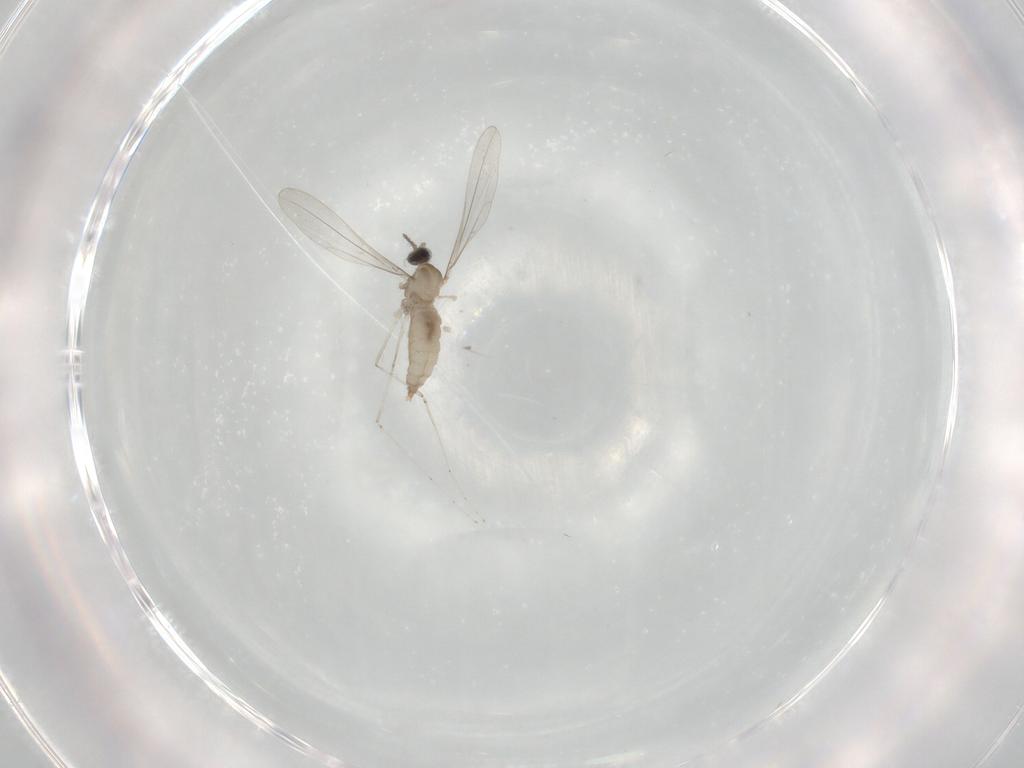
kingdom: Animalia
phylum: Arthropoda
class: Insecta
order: Diptera
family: Cecidomyiidae
